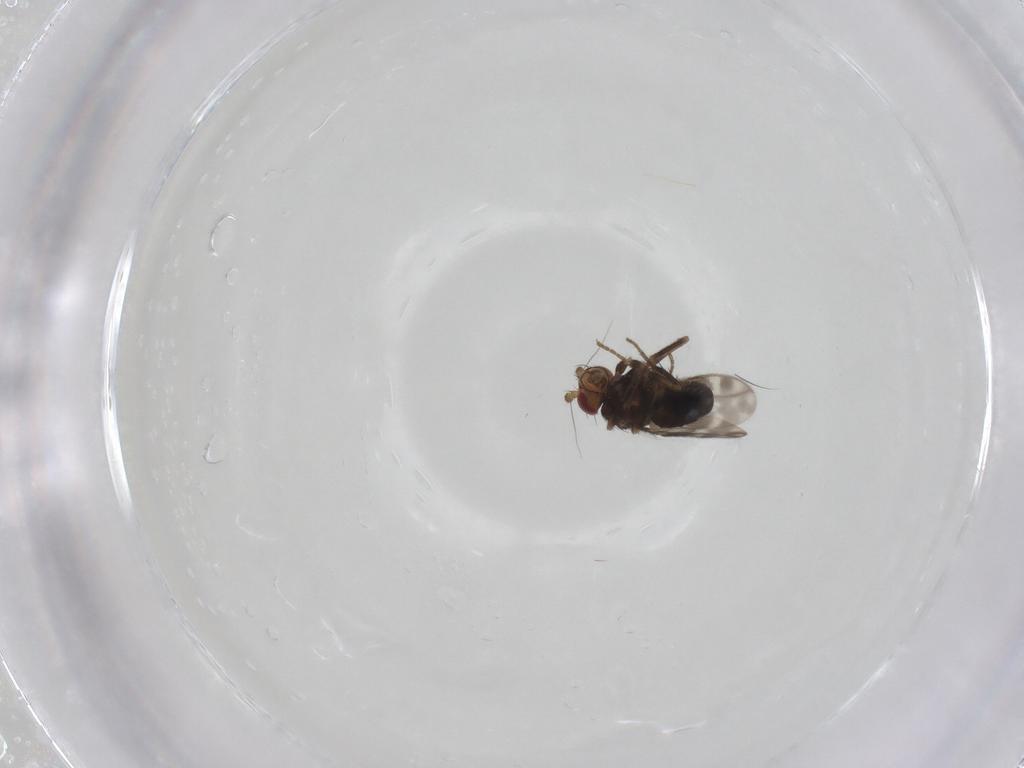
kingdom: Animalia
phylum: Arthropoda
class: Insecta
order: Diptera
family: Sphaeroceridae
